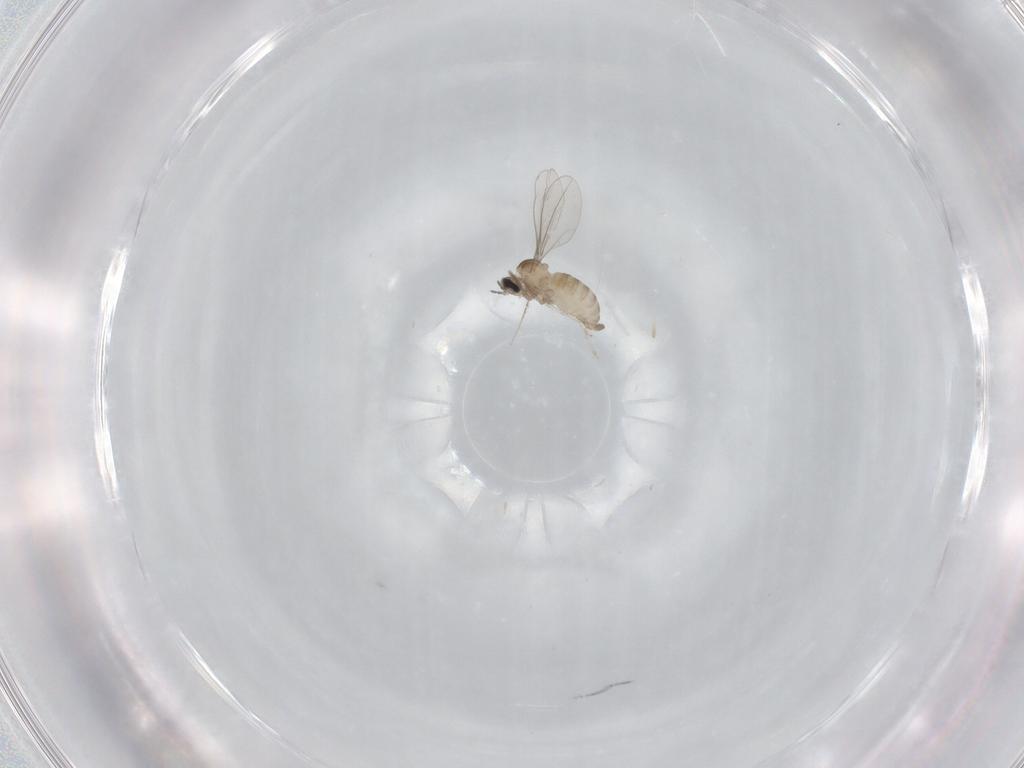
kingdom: Animalia
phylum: Arthropoda
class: Insecta
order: Diptera
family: Cecidomyiidae
